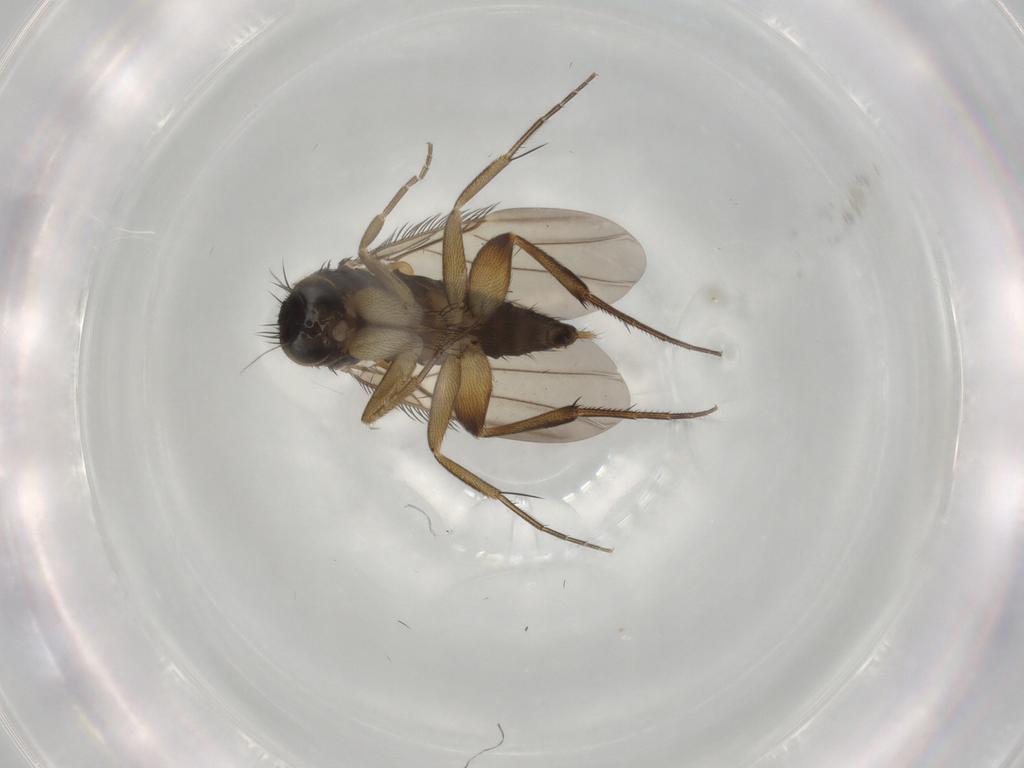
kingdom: Animalia
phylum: Arthropoda
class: Insecta
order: Diptera
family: Phoridae
